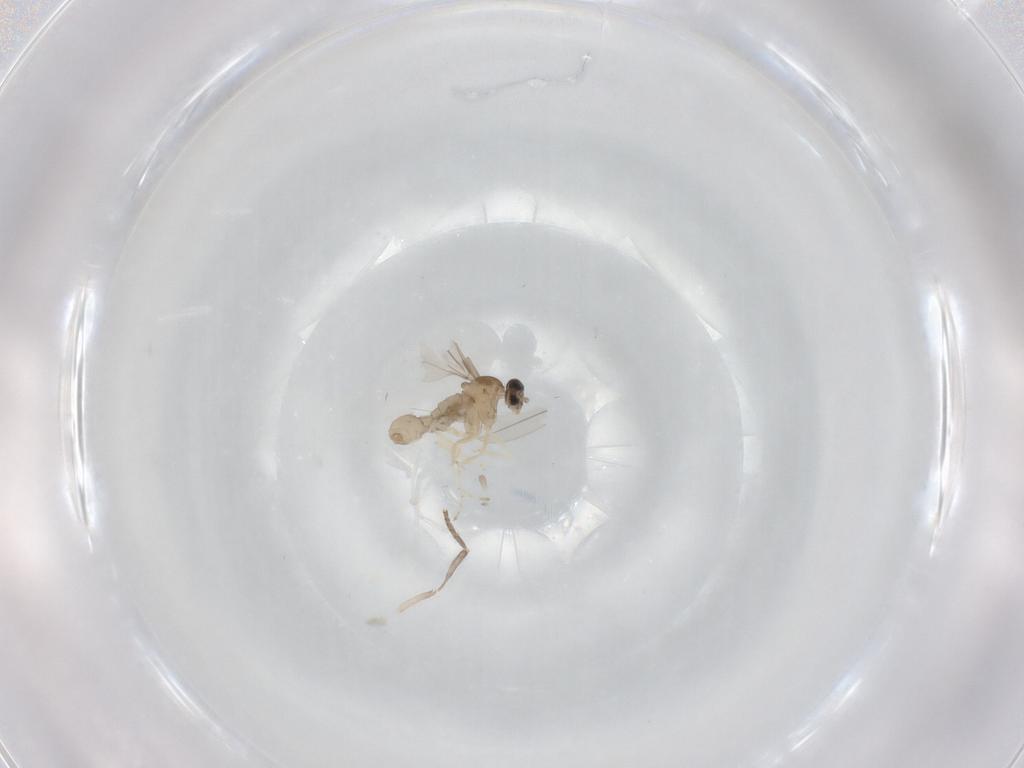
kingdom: Animalia
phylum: Arthropoda
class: Insecta
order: Diptera
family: Cecidomyiidae
